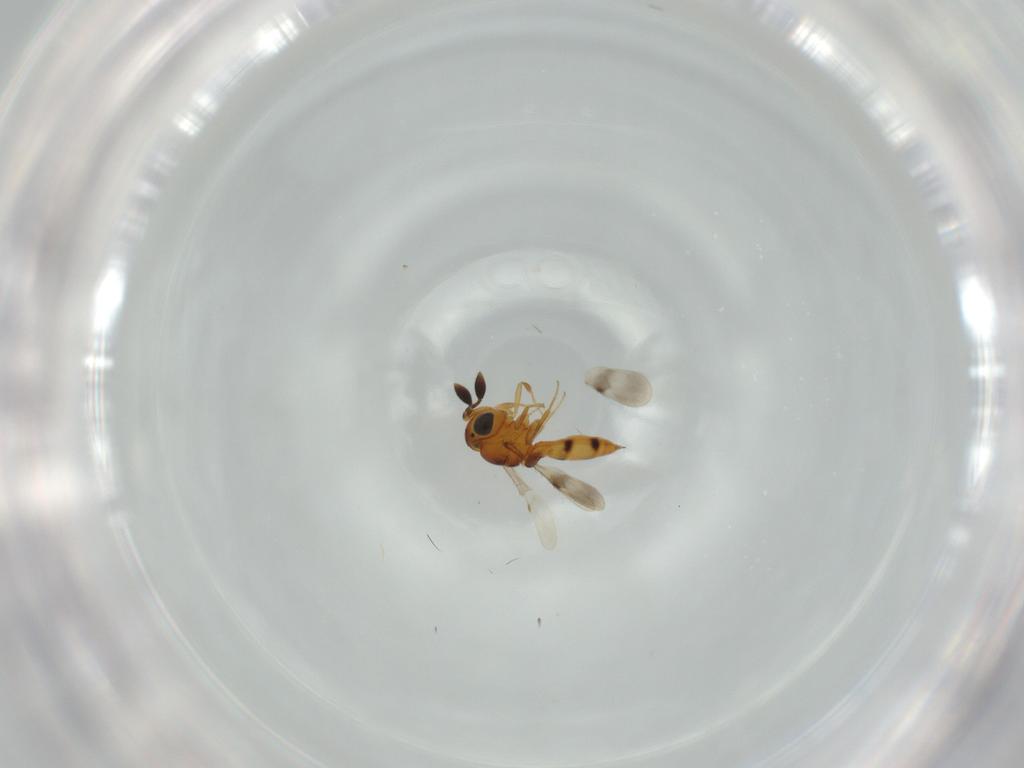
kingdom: Animalia
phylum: Arthropoda
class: Insecta
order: Hymenoptera
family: Scelionidae
